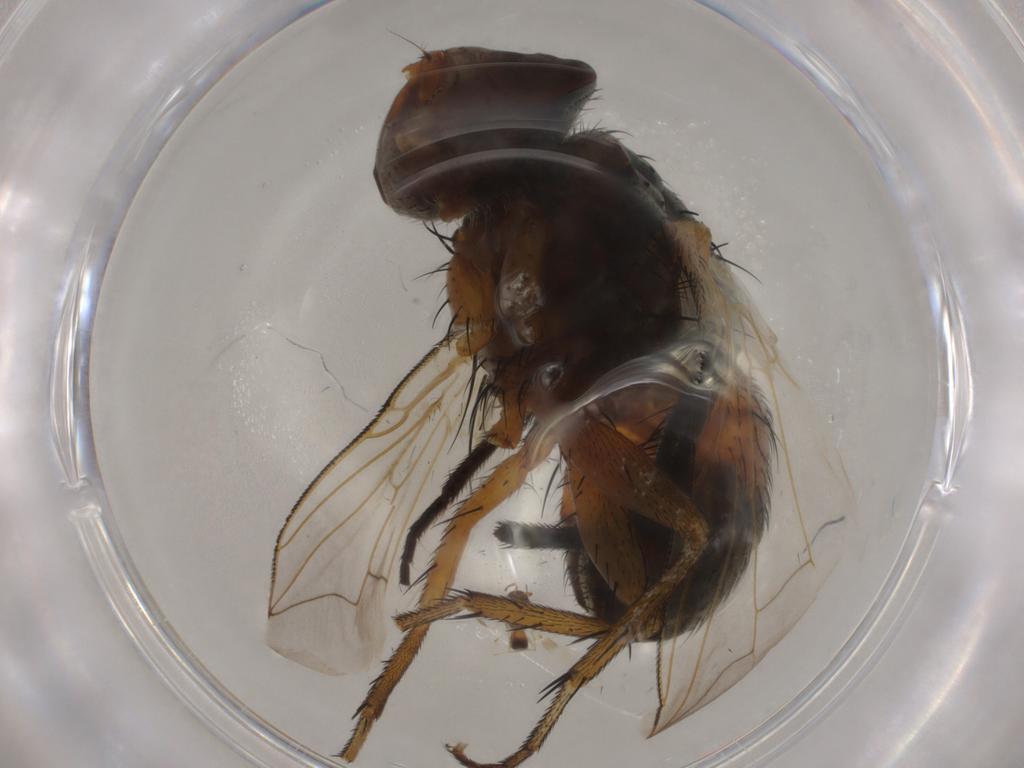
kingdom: Animalia
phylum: Arthropoda
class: Insecta
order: Diptera
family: Sarcophagidae
